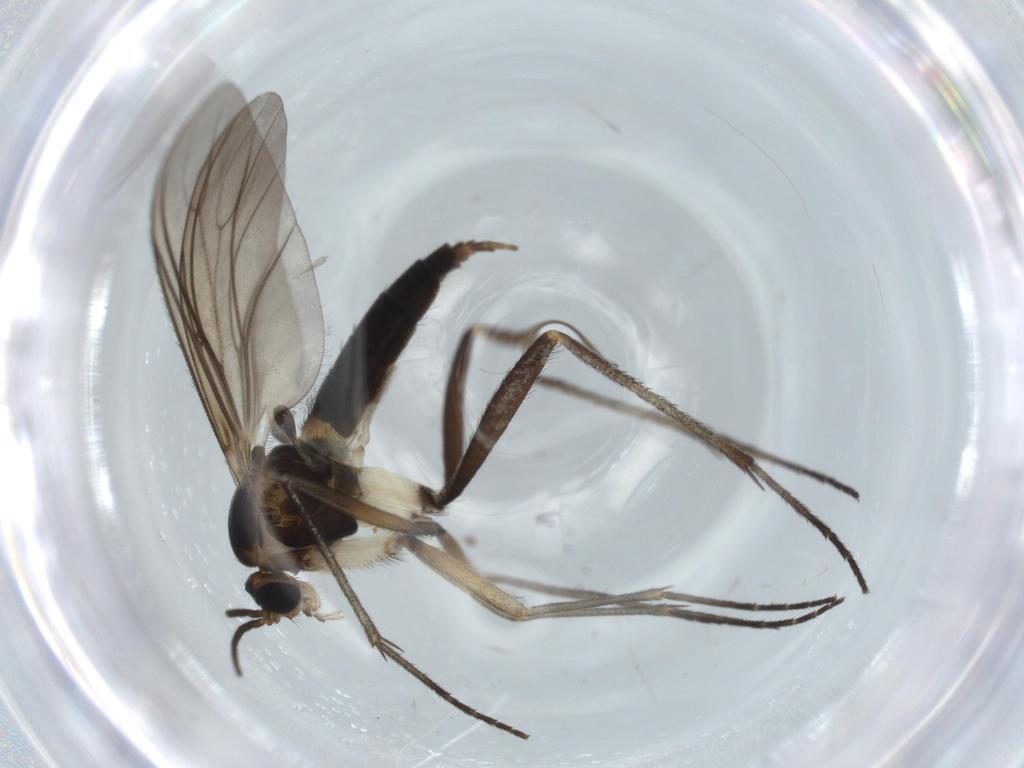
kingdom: Animalia
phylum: Arthropoda
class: Insecta
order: Diptera
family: Sciaridae
